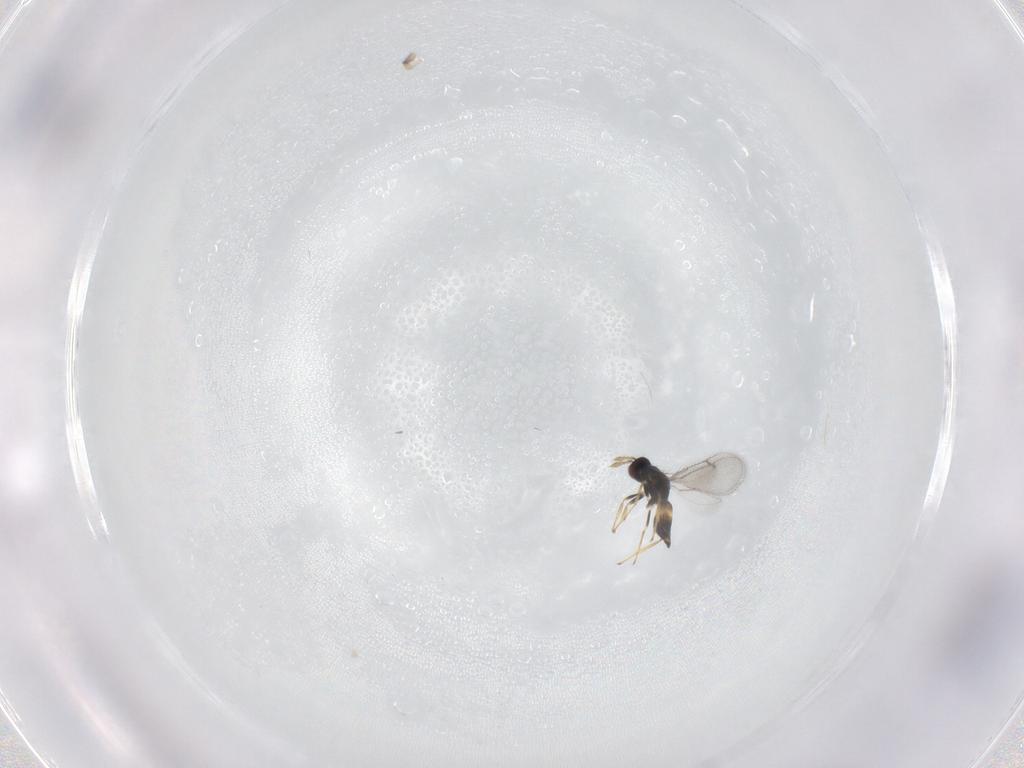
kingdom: Animalia
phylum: Arthropoda
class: Insecta
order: Hymenoptera
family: Eulophidae
